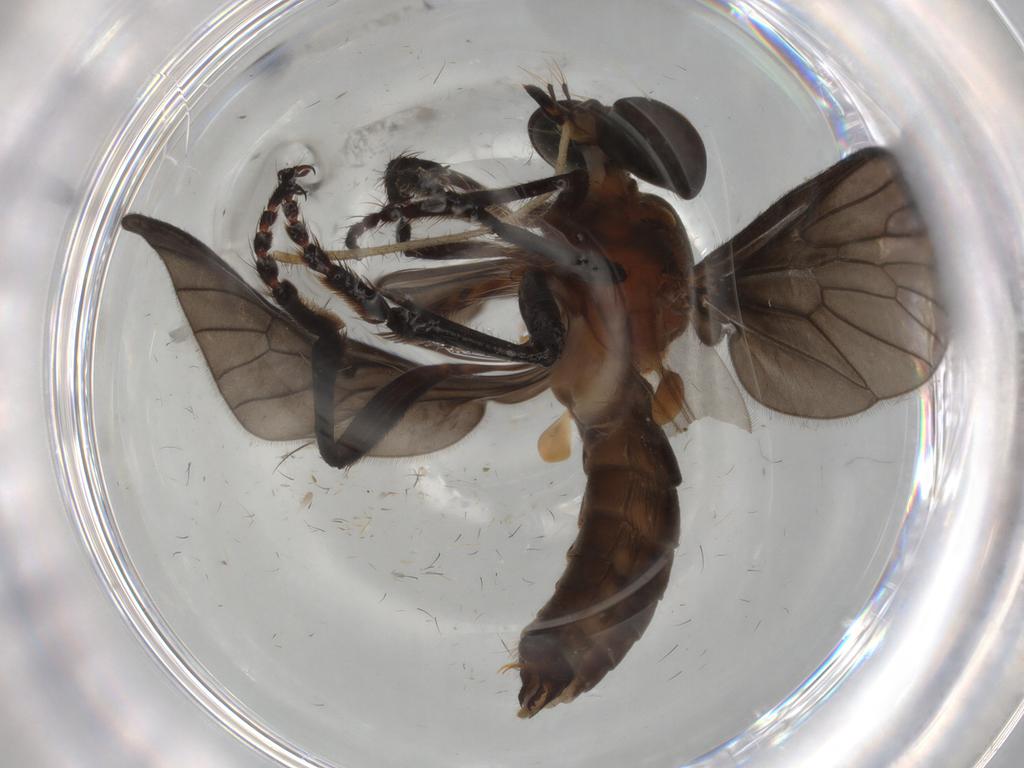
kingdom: Animalia
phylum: Arthropoda
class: Insecta
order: Diptera
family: Asilidae
